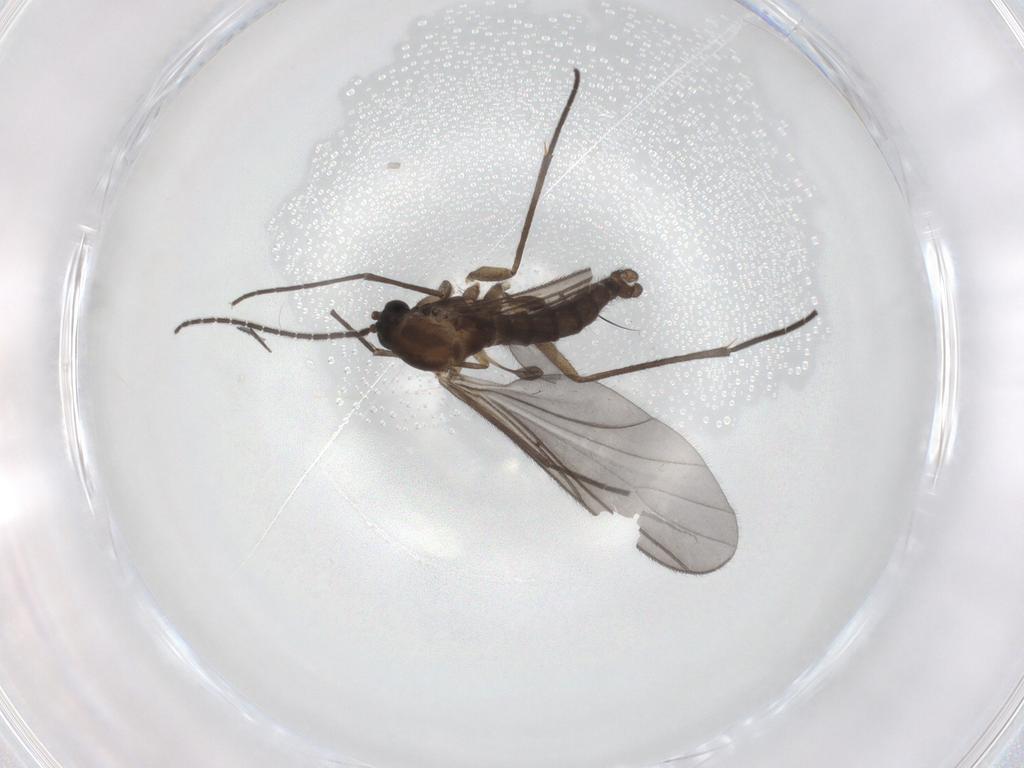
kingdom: Animalia
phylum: Arthropoda
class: Insecta
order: Diptera
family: Sciaridae
